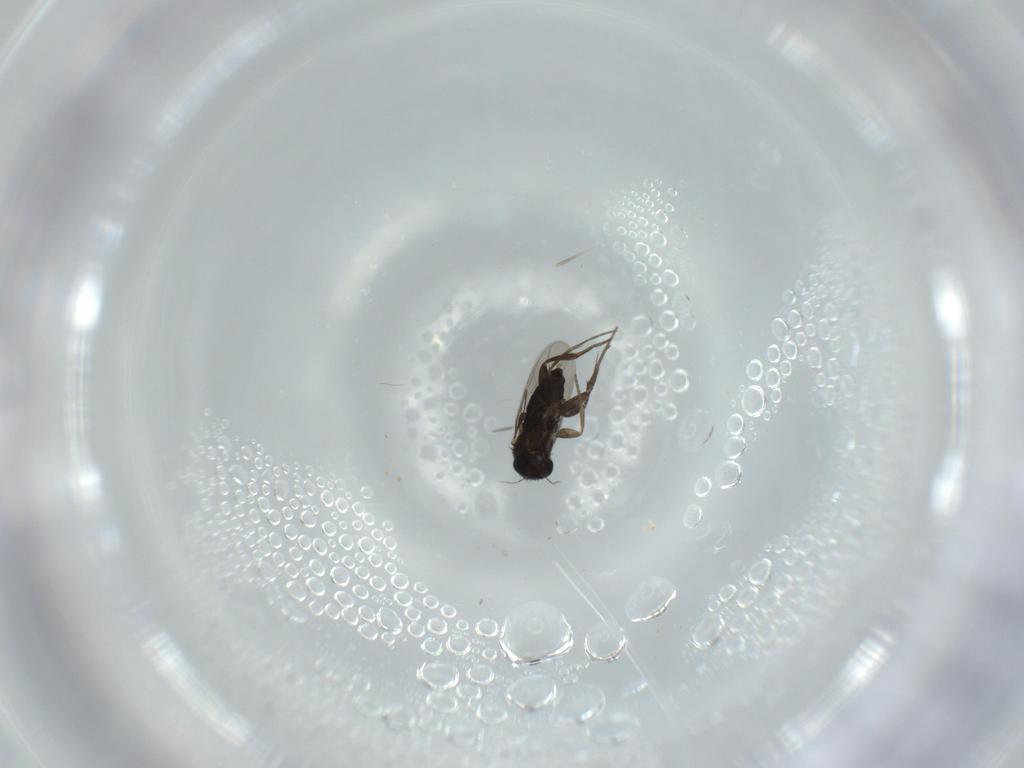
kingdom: Animalia
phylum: Arthropoda
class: Insecta
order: Diptera
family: Phoridae
